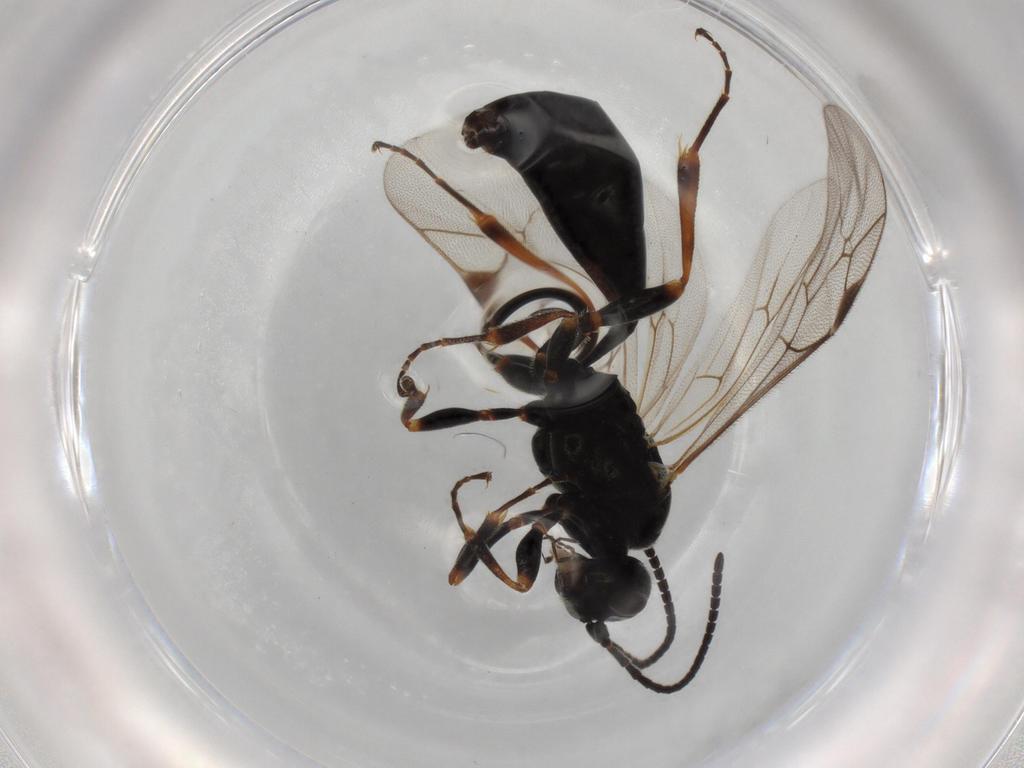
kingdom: Animalia
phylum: Arthropoda
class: Insecta
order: Hymenoptera
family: Ichneumonidae
